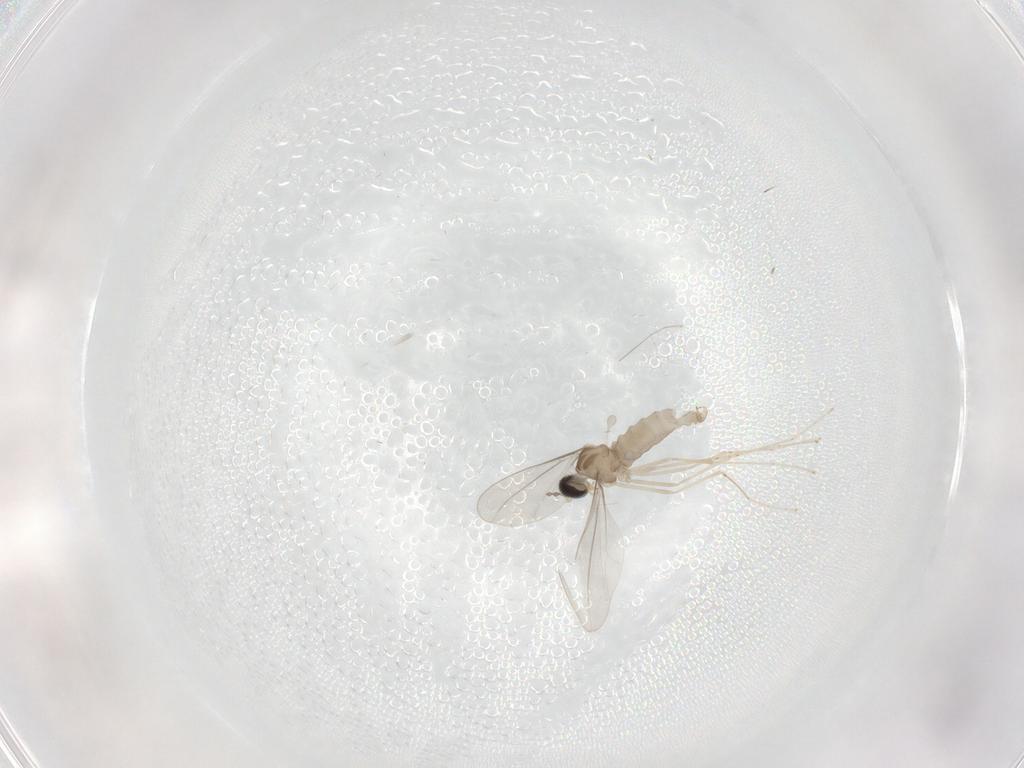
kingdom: Animalia
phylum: Arthropoda
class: Insecta
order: Diptera
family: Cecidomyiidae
